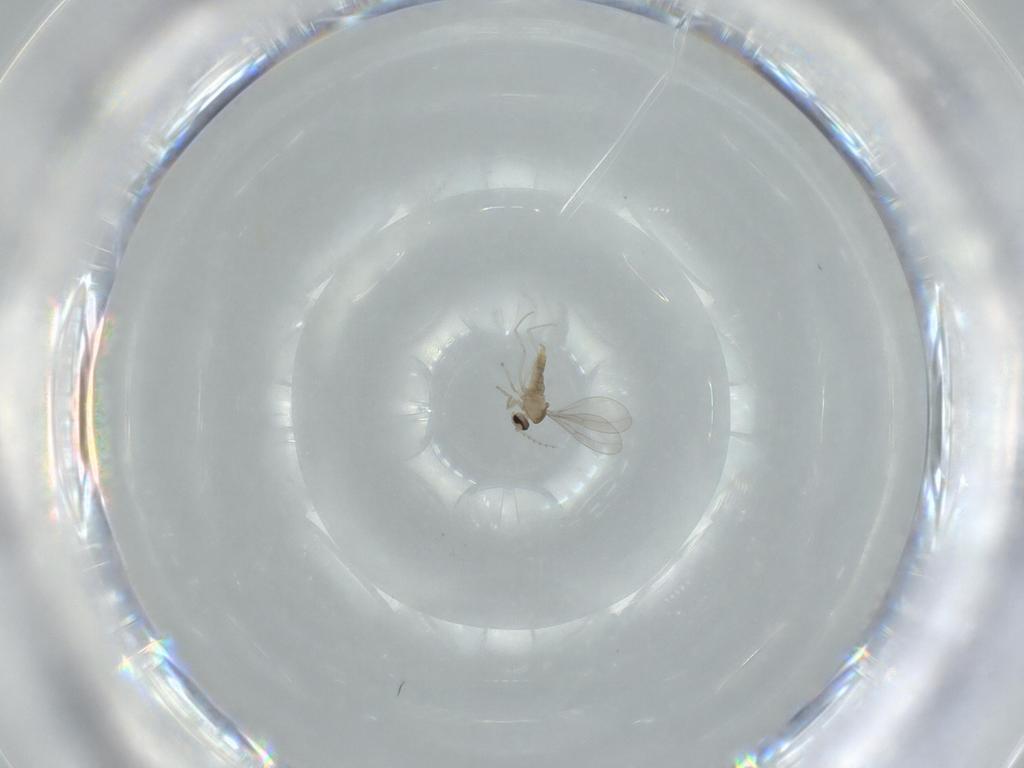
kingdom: Animalia
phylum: Arthropoda
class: Insecta
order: Diptera
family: Cecidomyiidae
